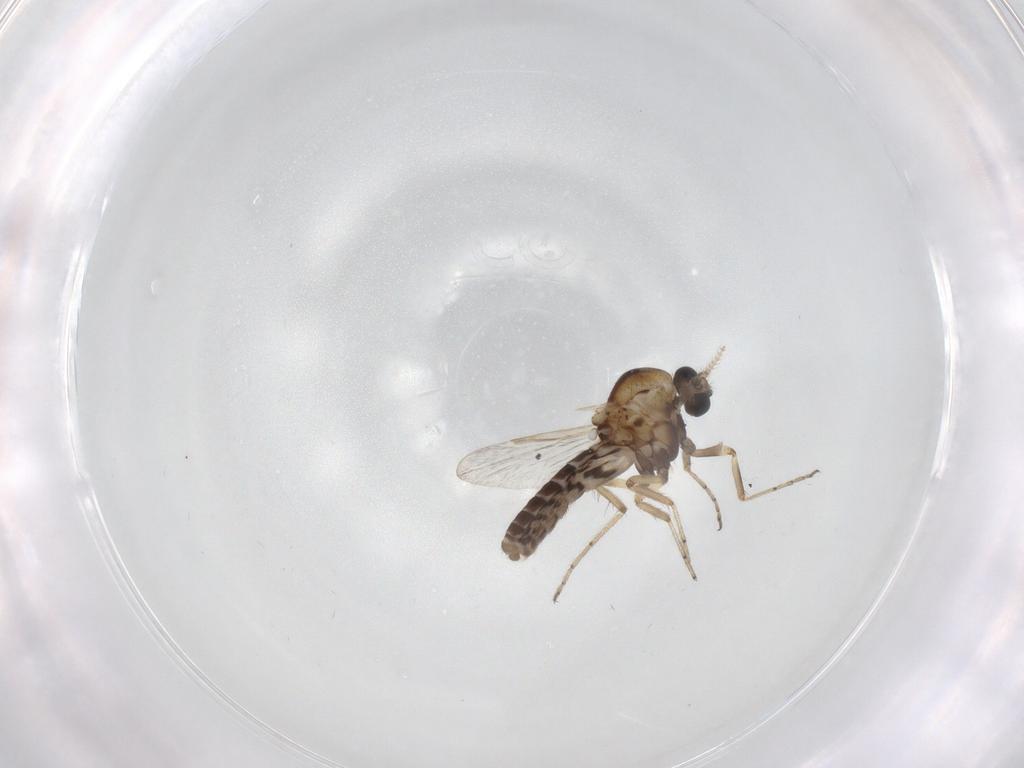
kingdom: Animalia
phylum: Arthropoda
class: Insecta
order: Diptera
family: Ceratopogonidae
